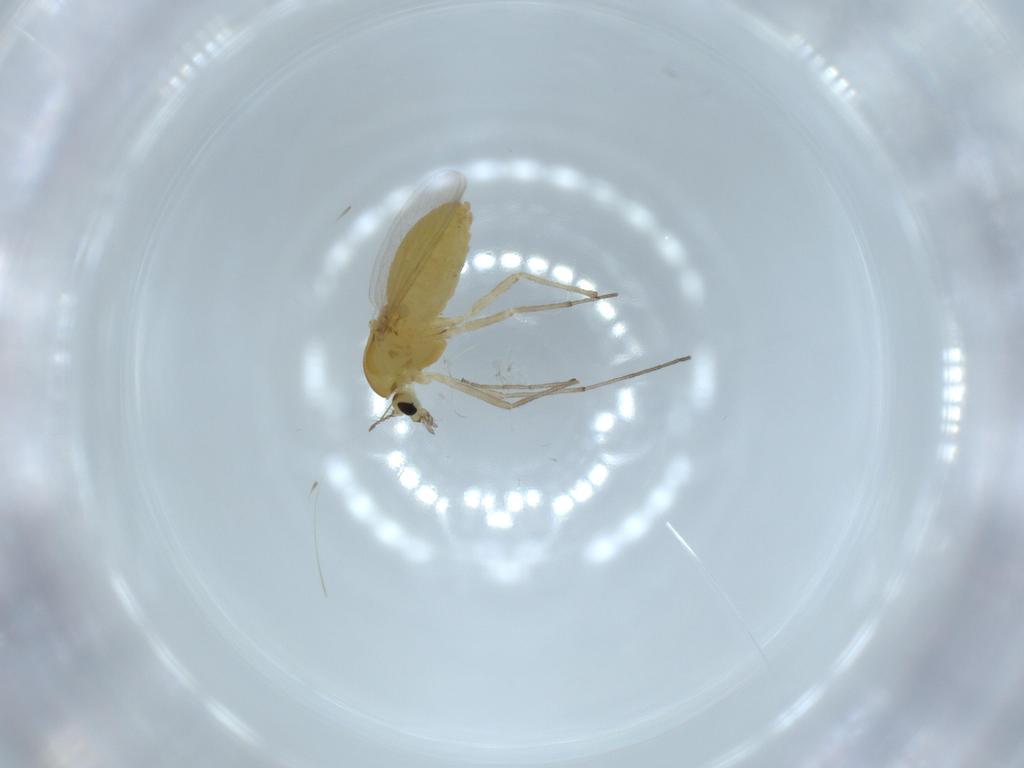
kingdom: Animalia
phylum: Arthropoda
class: Insecta
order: Diptera
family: Chironomidae
